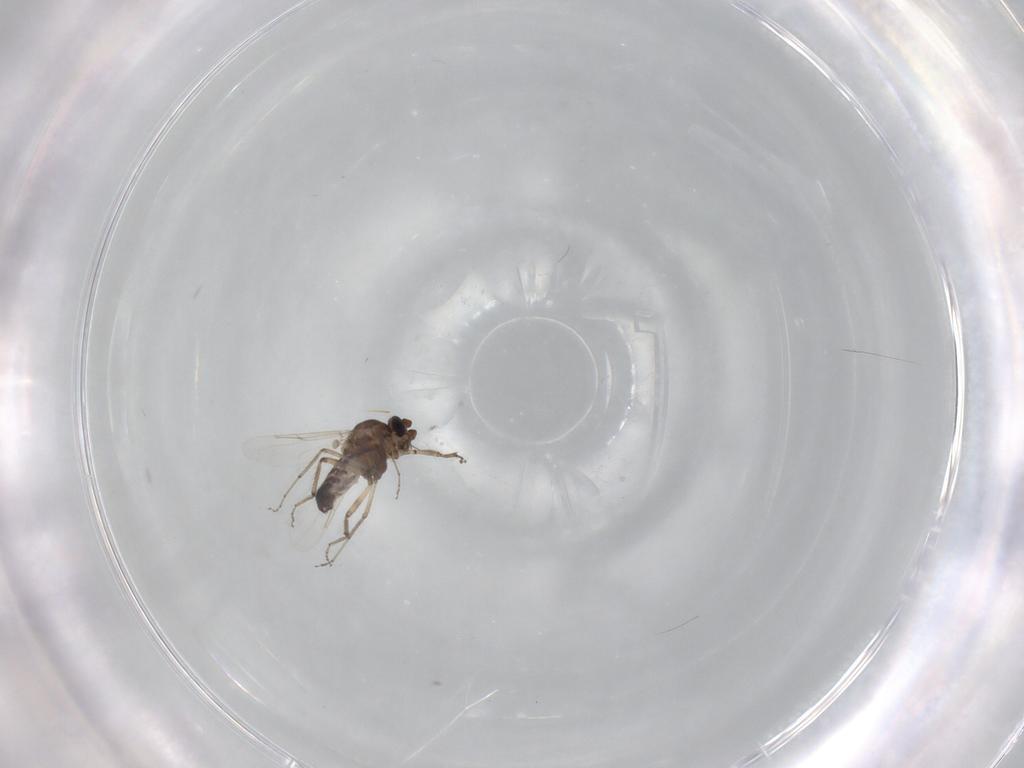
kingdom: Animalia
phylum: Arthropoda
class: Insecta
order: Diptera
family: Ceratopogonidae
